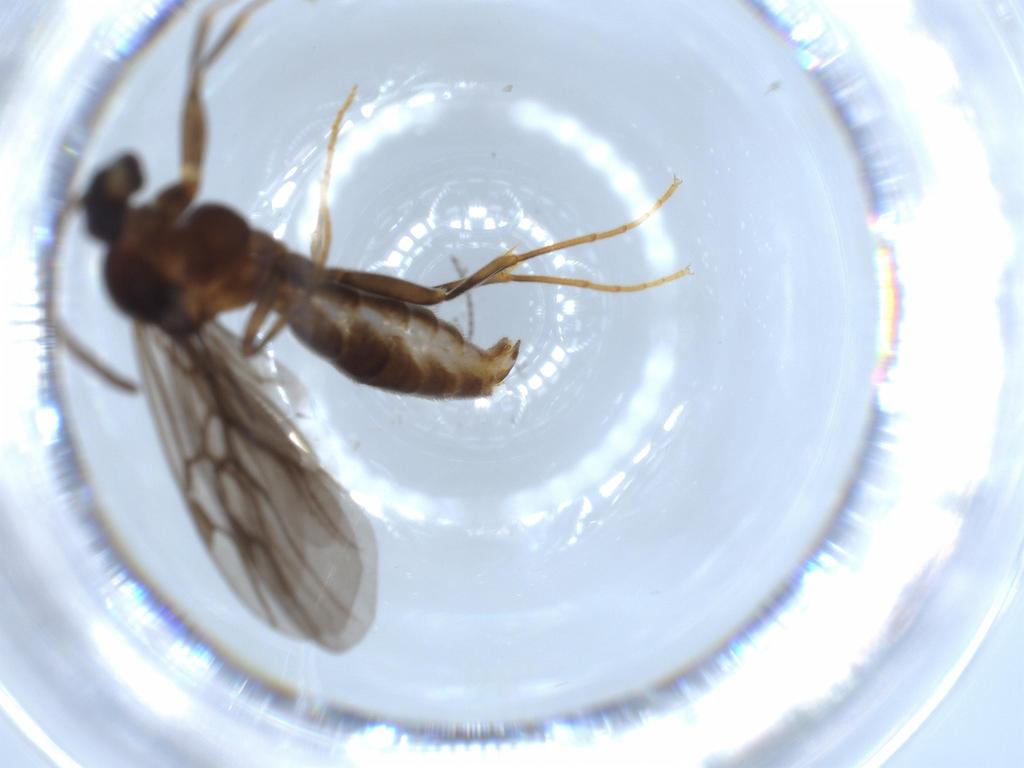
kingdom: Animalia
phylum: Arthropoda
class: Insecta
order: Hymenoptera
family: Formicidae
